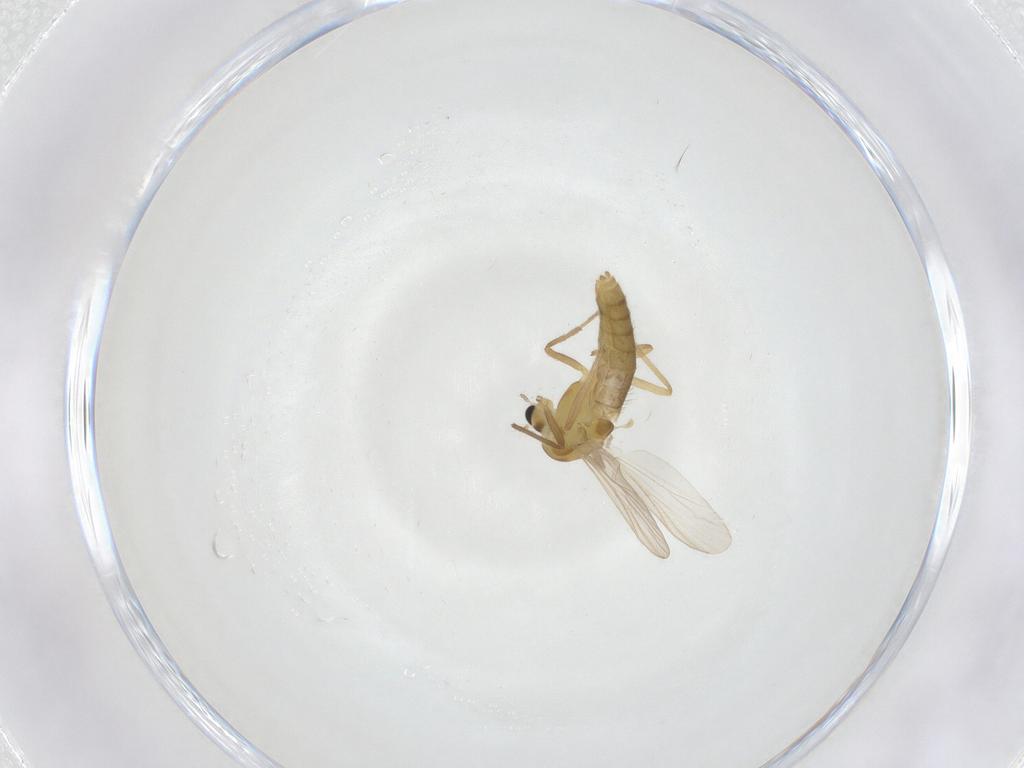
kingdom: Animalia
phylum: Arthropoda
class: Insecta
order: Diptera
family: Chironomidae
